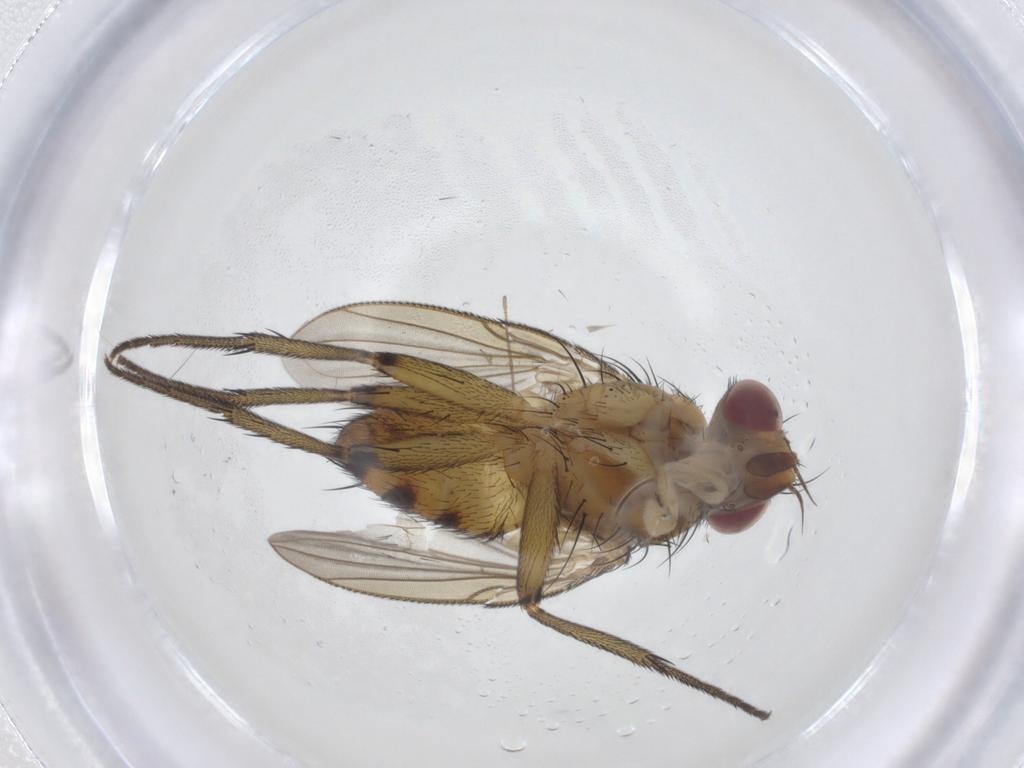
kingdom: Animalia
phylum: Arthropoda
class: Insecta
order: Diptera
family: Tachinidae
